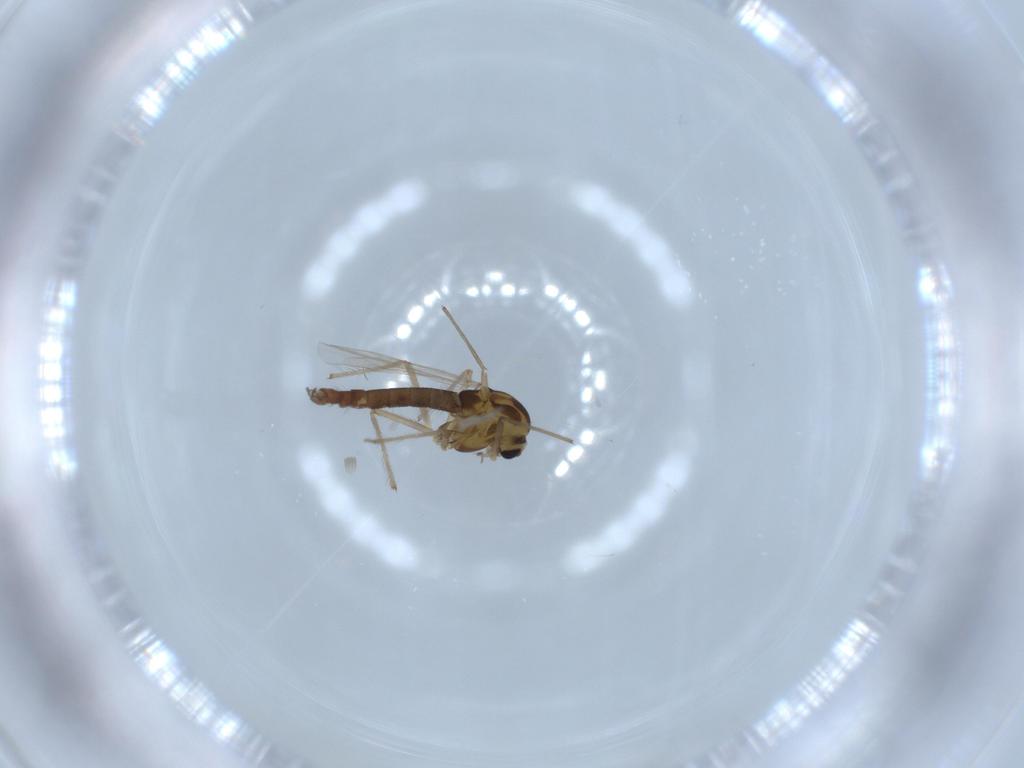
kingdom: Animalia
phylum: Arthropoda
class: Insecta
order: Diptera
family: Chironomidae
